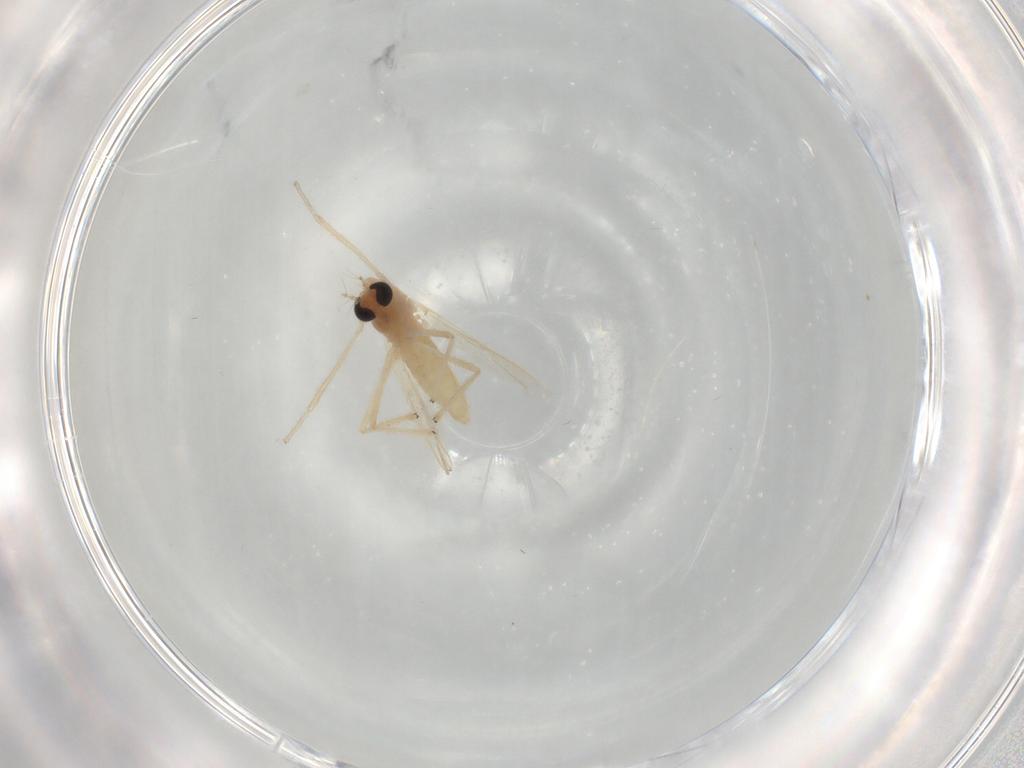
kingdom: Animalia
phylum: Arthropoda
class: Insecta
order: Diptera
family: Chironomidae
